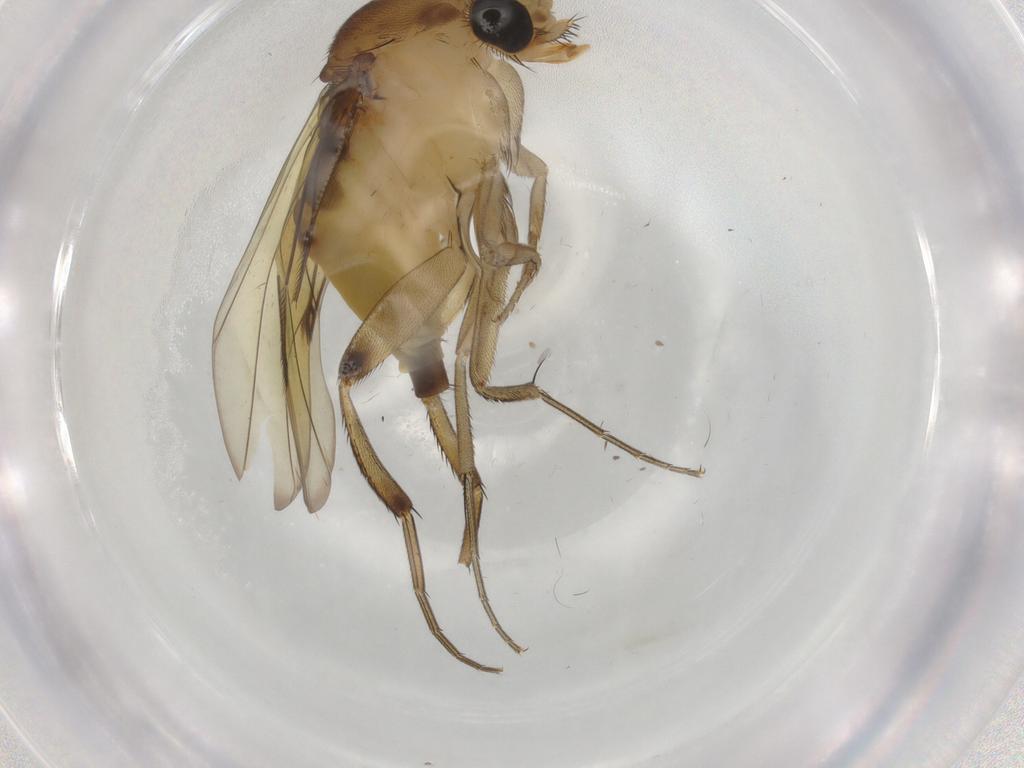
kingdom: Animalia
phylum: Arthropoda
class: Insecta
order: Diptera
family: Phoridae
